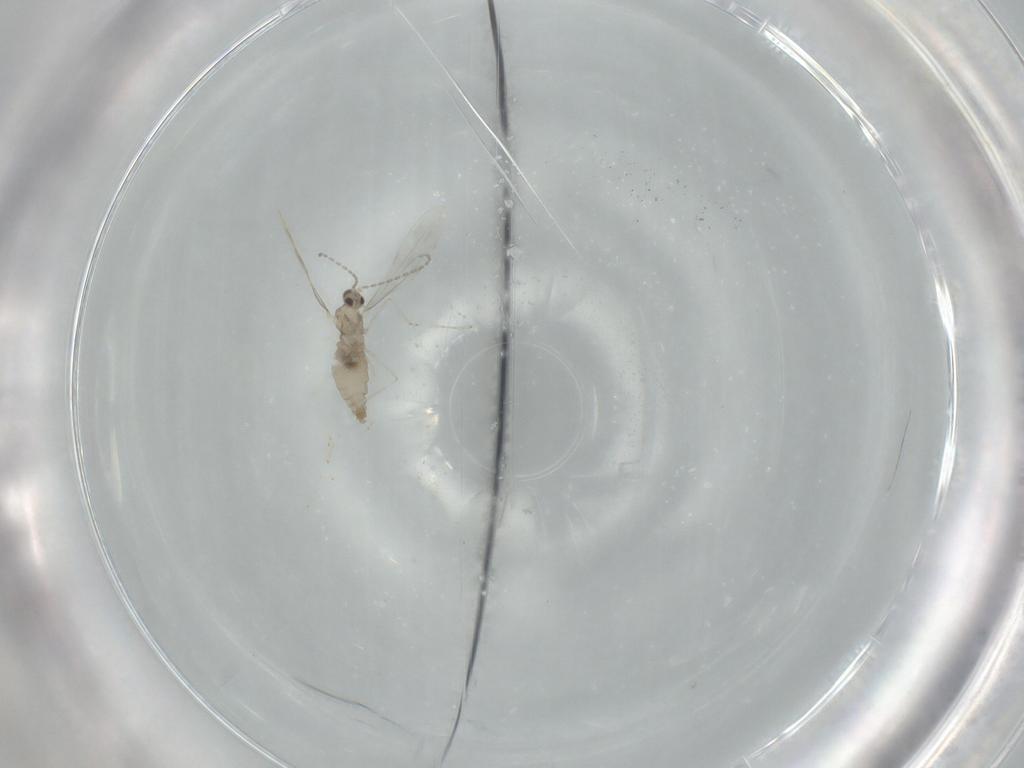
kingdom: Animalia
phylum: Arthropoda
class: Insecta
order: Diptera
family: Cecidomyiidae
